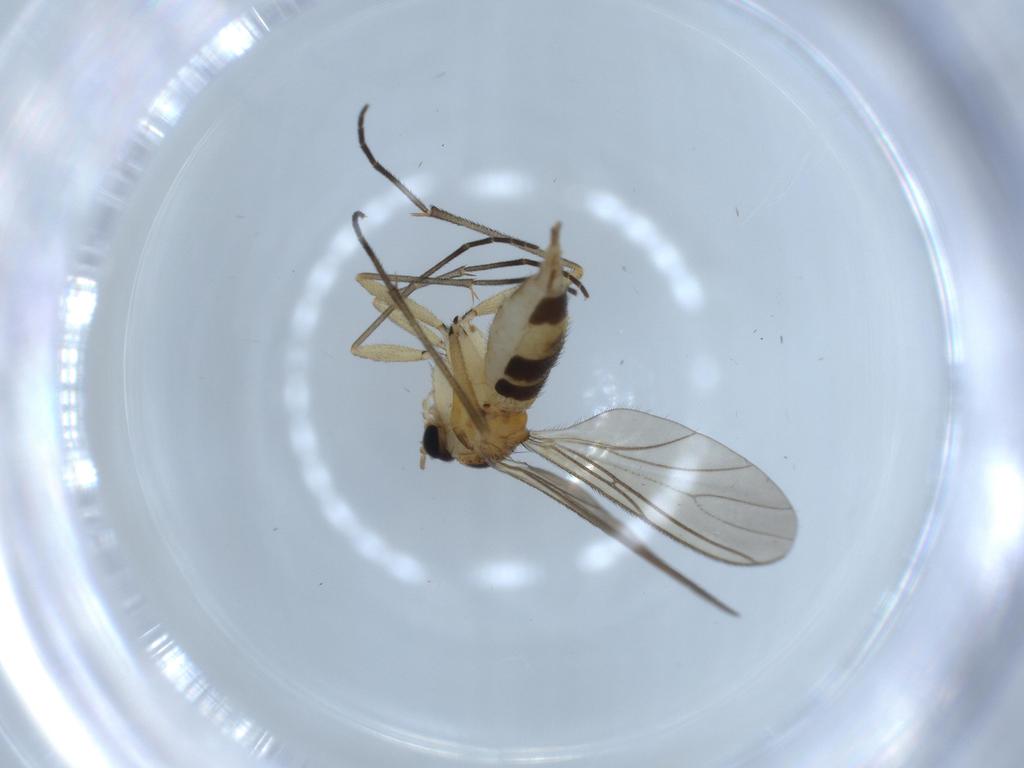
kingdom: Animalia
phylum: Arthropoda
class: Insecta
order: Diptera
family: Sciaridae
